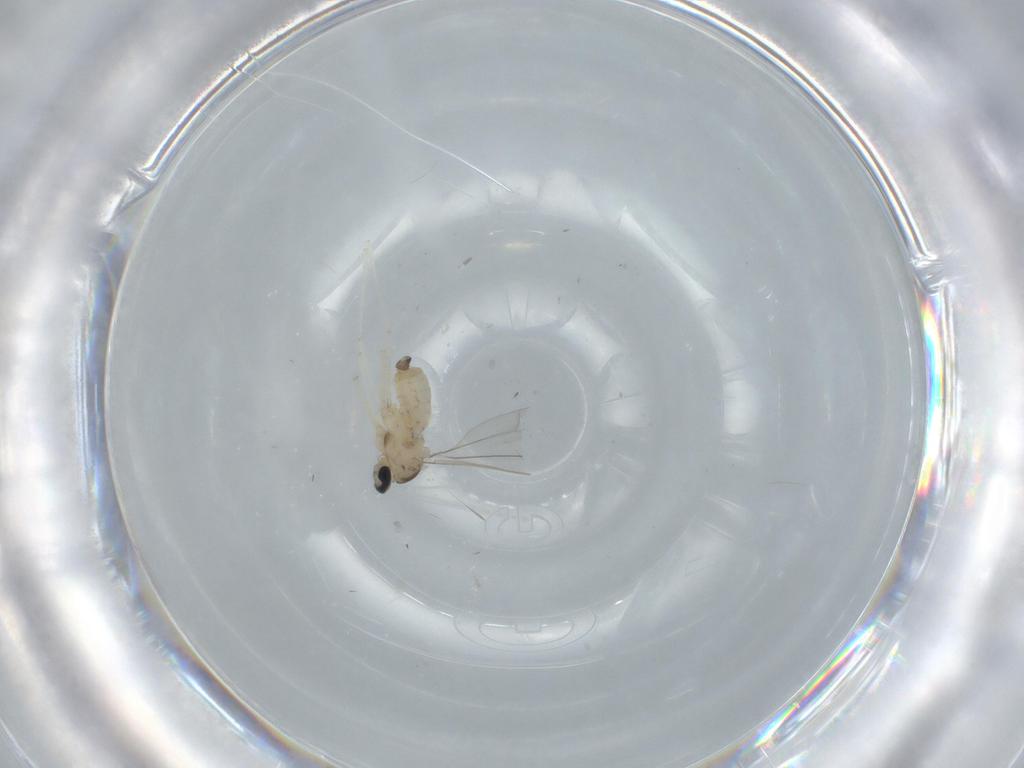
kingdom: Animalia
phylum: Arthropoda
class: Insecta
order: Diptera
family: Cecidomyiidae
